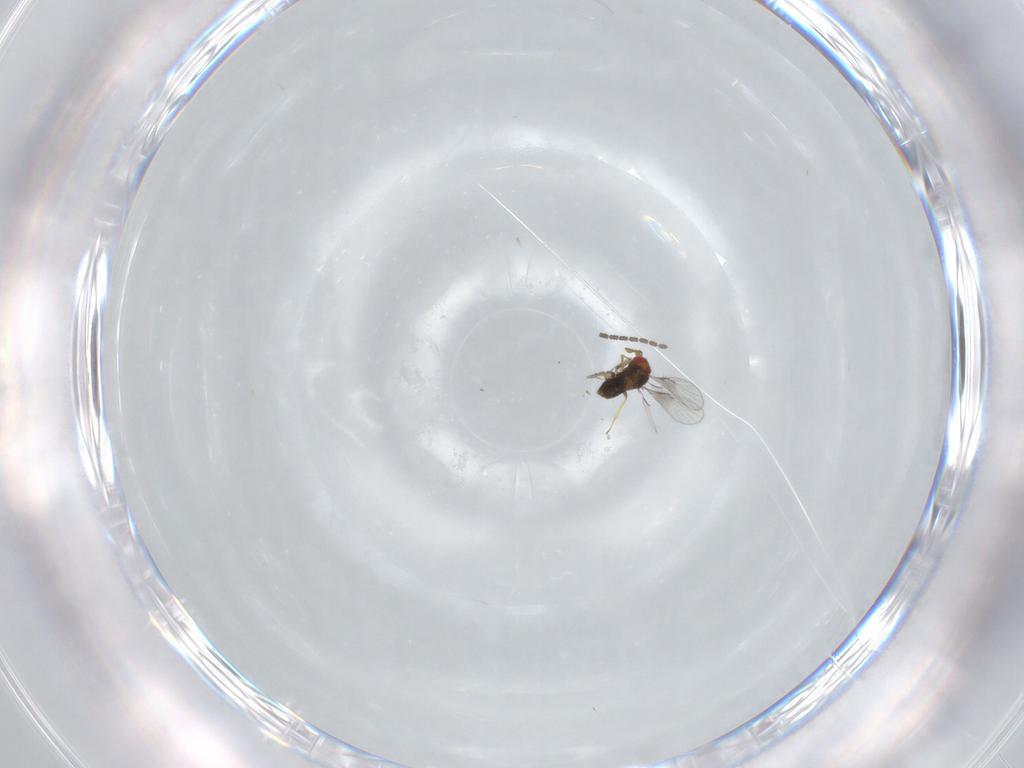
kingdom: Animalia
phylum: Arthropoda
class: Insecta
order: Hymenoptera
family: Trichogrammatidae
